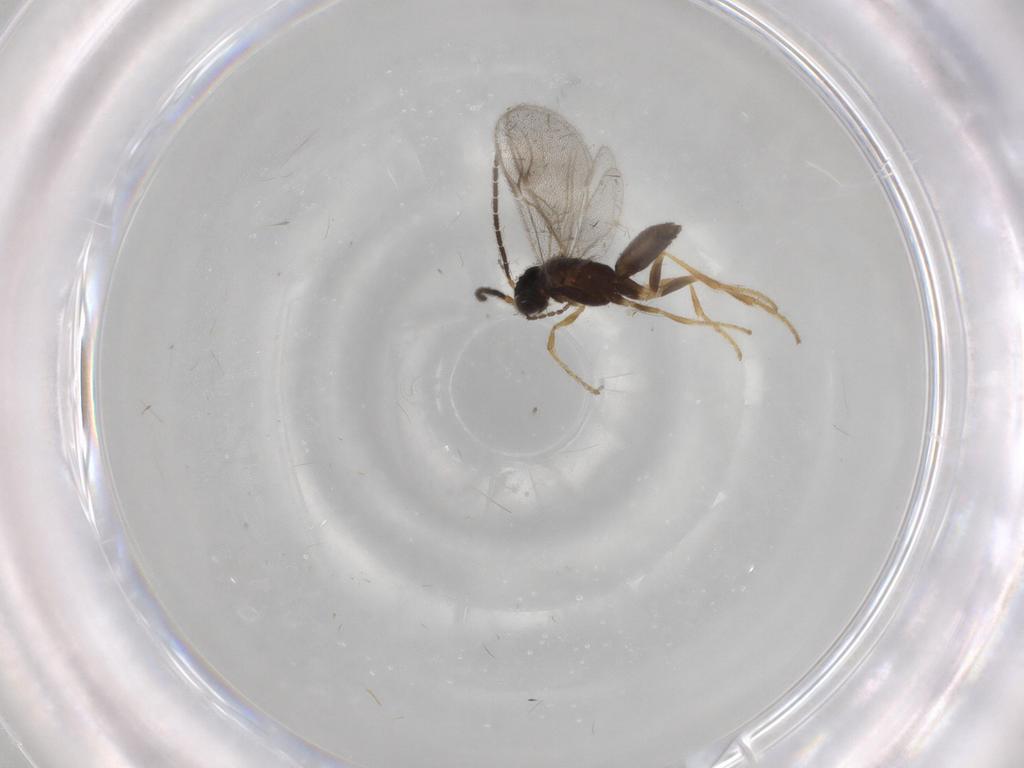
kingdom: Animalia
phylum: Arthropoda
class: Insecta
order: Hymenoptera
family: Dryinidae
